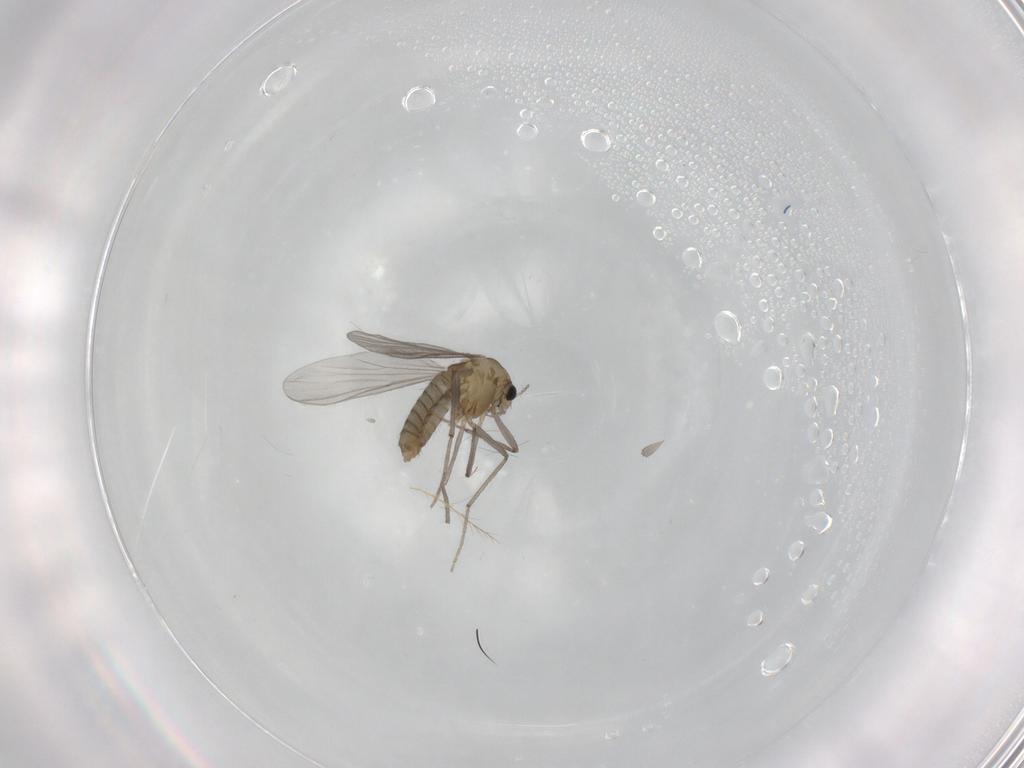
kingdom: Animalia
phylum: Arthropoda
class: Insecta
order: Diptera
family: Chironomidae
